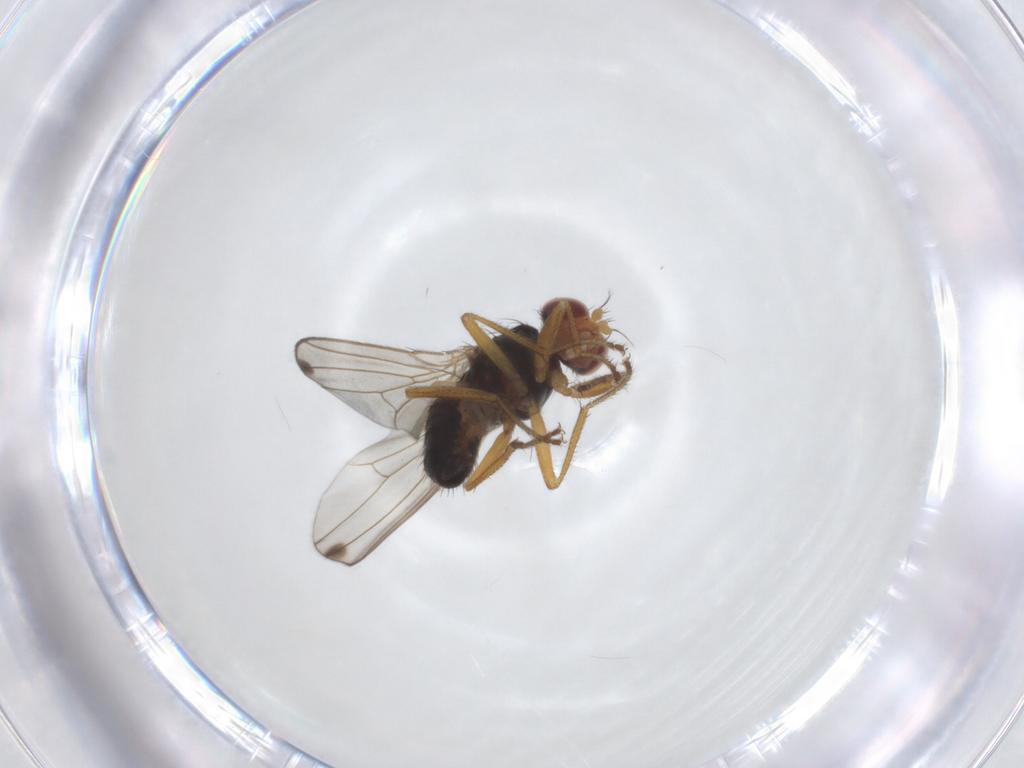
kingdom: Animalia
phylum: Arthropoda
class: Insecta
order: Diptera
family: Drosophilidae
